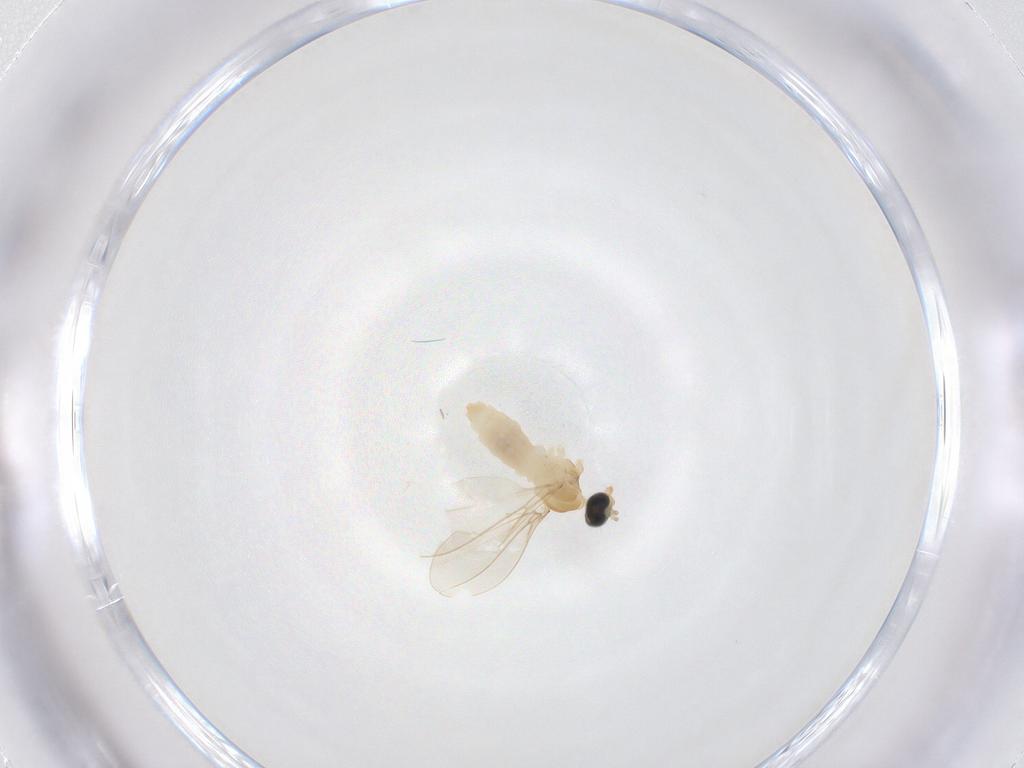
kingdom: Animalia
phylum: Arthropoda
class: Insecta
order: Diptera
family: Cecidomyiidae
